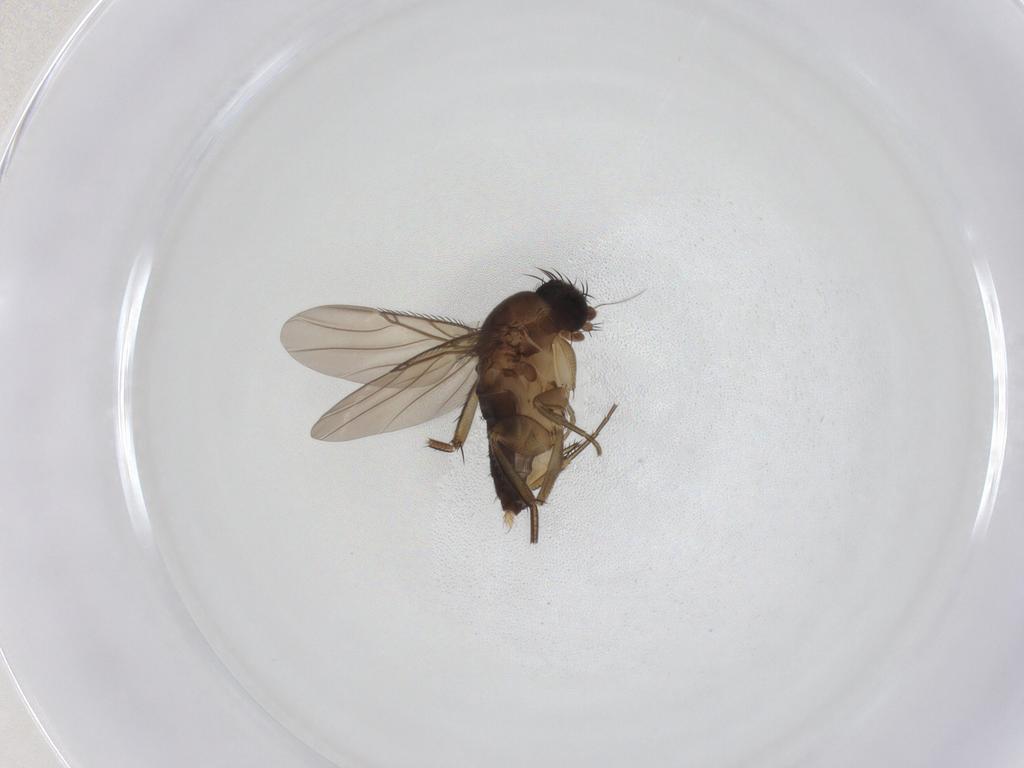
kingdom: Animalia
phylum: Arthropoda
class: Insecta
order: Diptera
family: Phoridae
